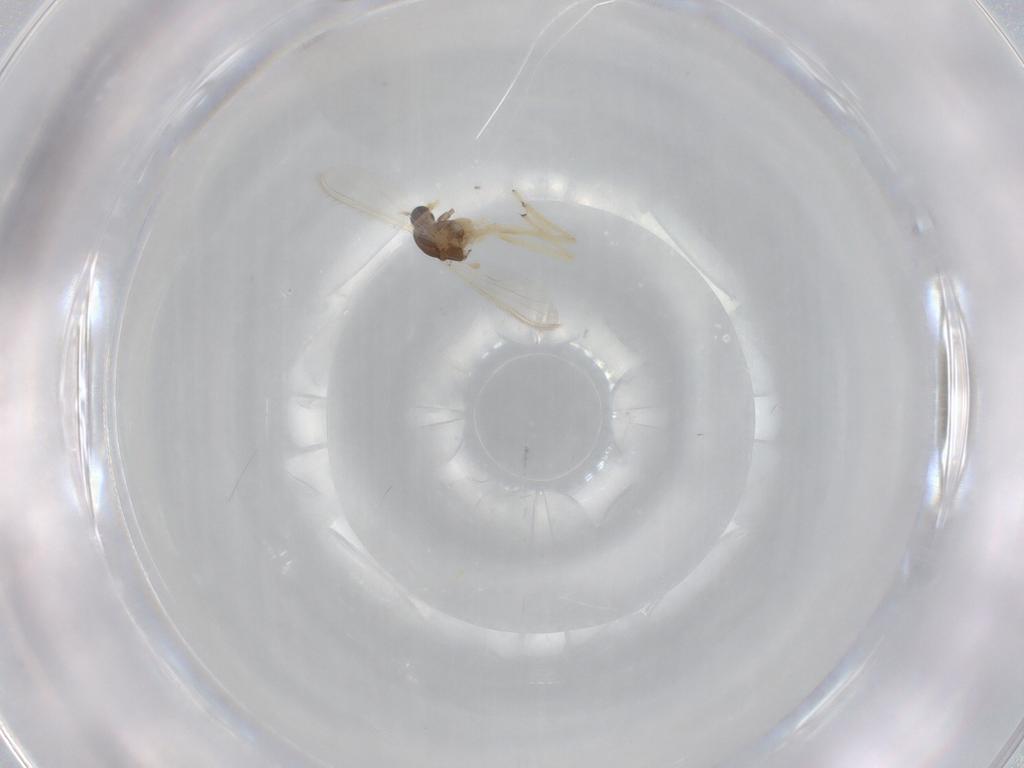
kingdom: Animalia
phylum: Arthropoda
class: Insecta
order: Diptera
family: Chironomidae
